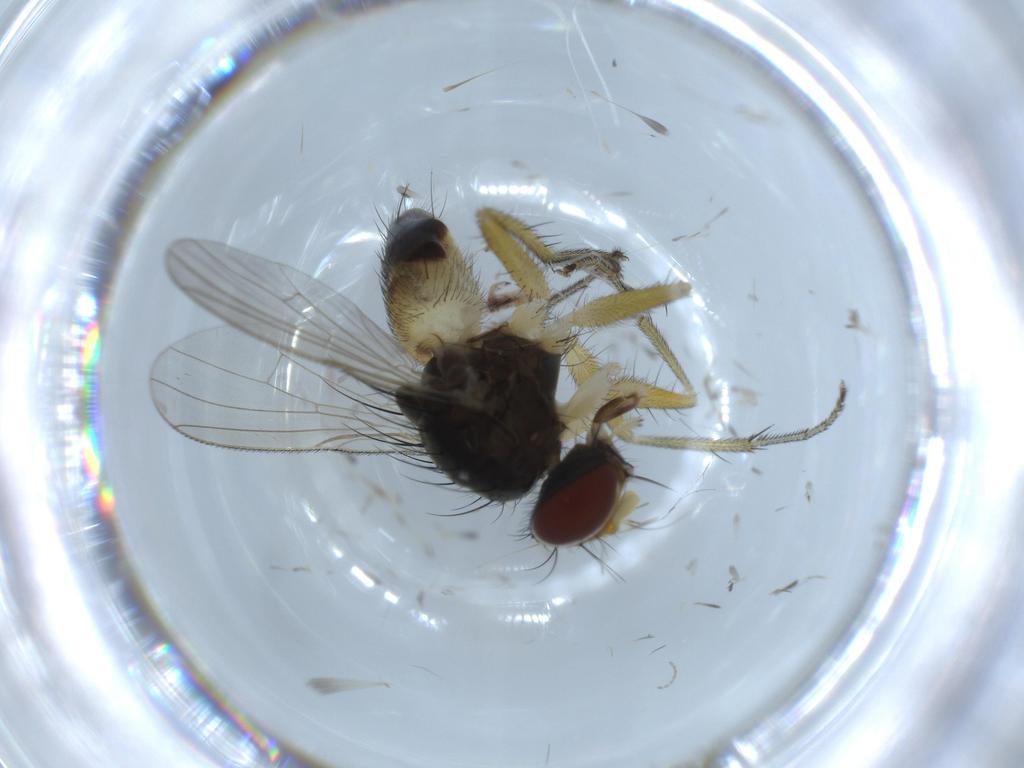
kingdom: Animalia
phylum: Arthropoda
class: Insecta
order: Diptera
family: Muscidae
